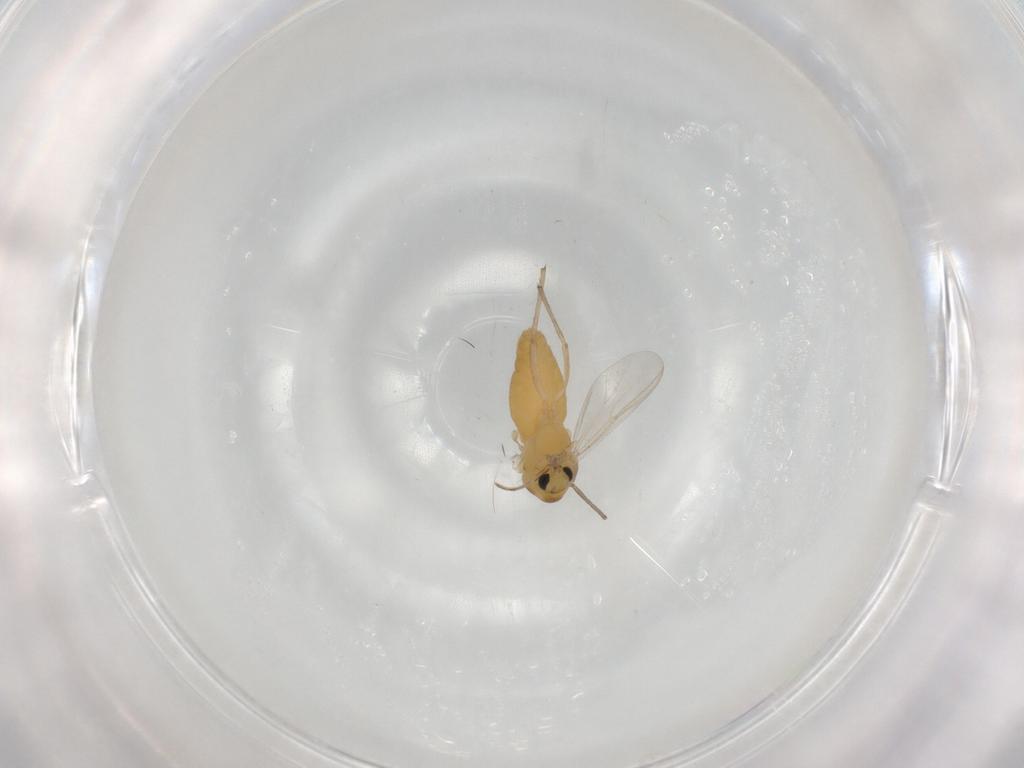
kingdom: Animalia
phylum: Arthropoda
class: Insecta
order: Diptera
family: Chironomidae
